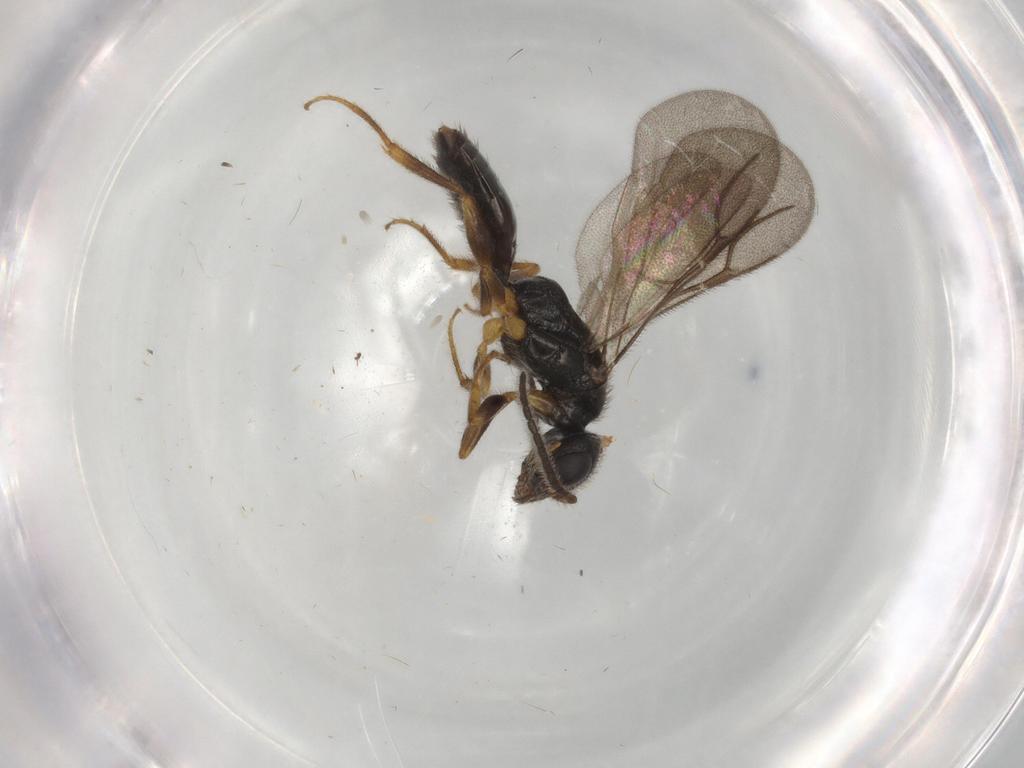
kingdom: Animalia
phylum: Arthropoda
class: Insecta
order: Hymenoptera
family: Bethylidae
